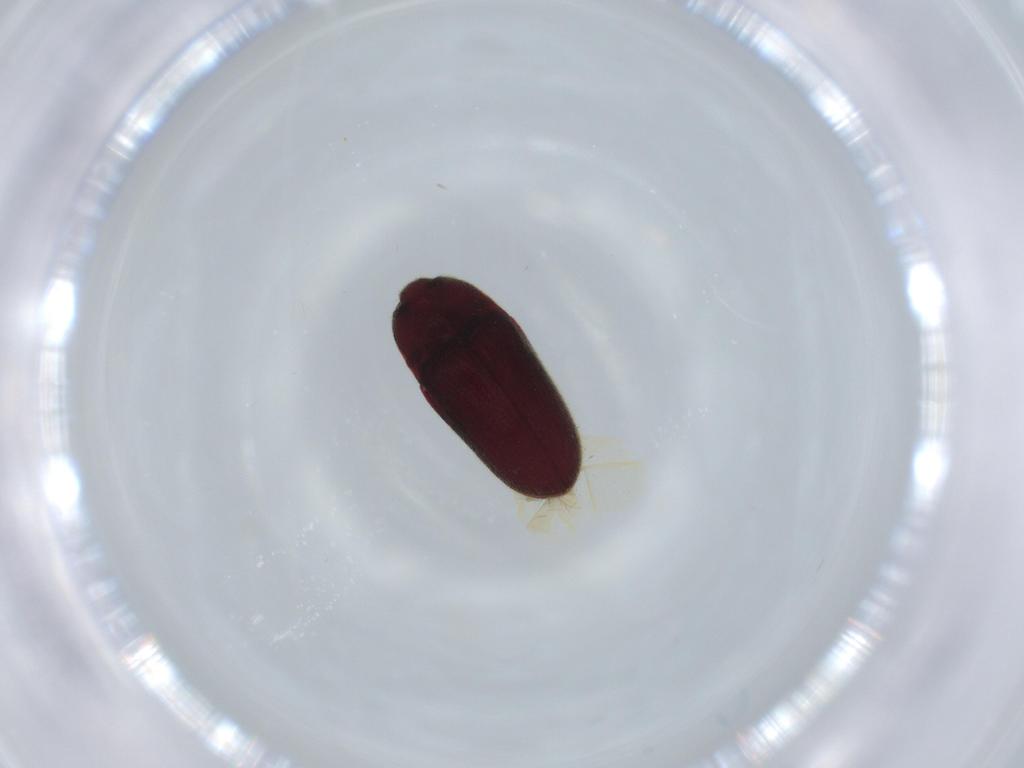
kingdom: Animalia
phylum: Arthropoda
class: Insecta
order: Coleoptera
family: Throscidae
